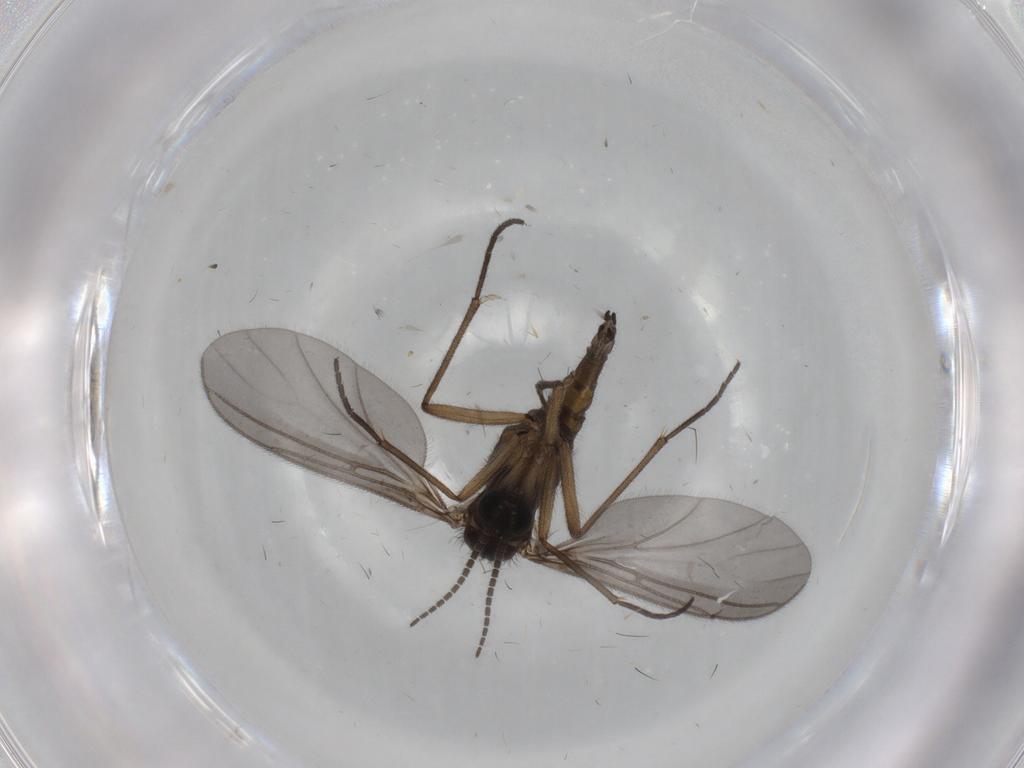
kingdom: Animalia
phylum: Arthropoda
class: Insecta
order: Diptera
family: Sciaridae
